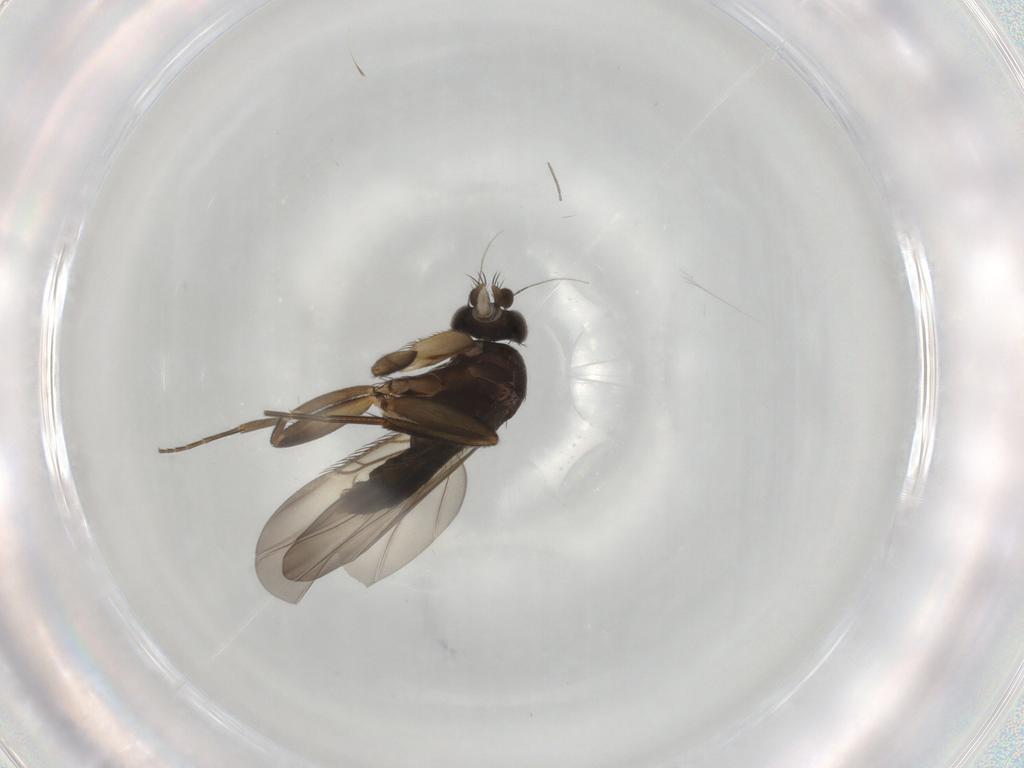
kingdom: Animalia
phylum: Arthropoda
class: Insecta
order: Diptera
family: Phoridae
